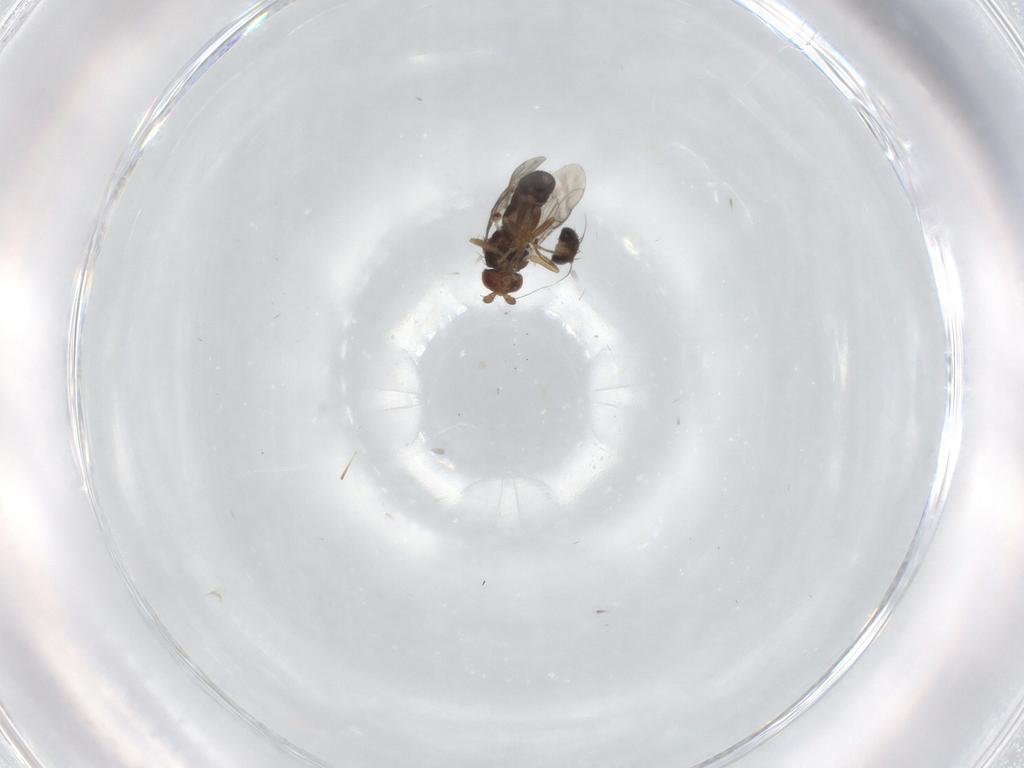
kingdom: Animalia
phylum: Arthropoda
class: Insecta
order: Diptera
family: Sphaeroceridae
